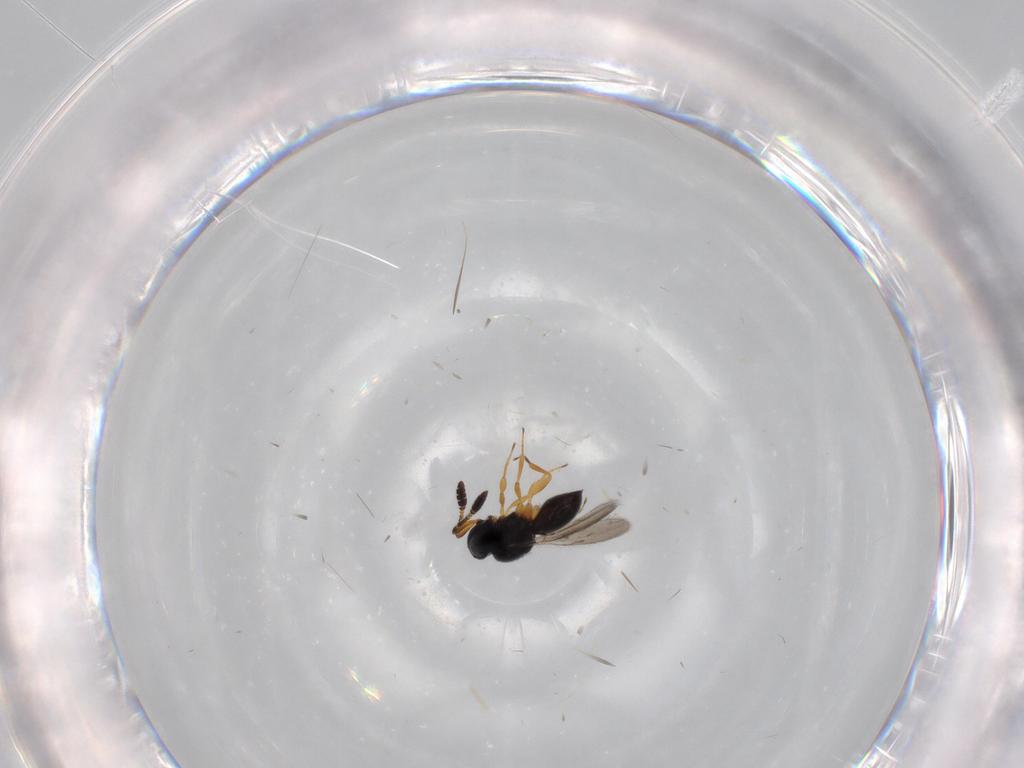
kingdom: Animalia
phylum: Arthropoda
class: Insecta
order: Hymenoptera
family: Scelionidae
